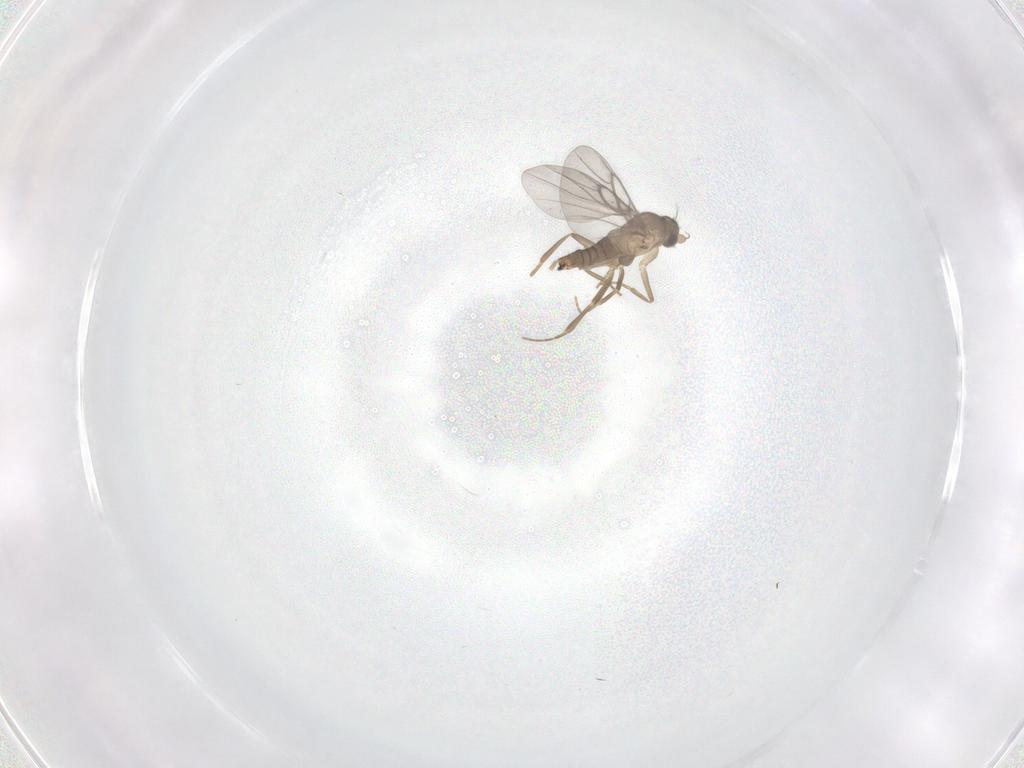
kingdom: Animalia
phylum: Arthropoda
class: Insecta
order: Diptera
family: Cecidomyiidae
